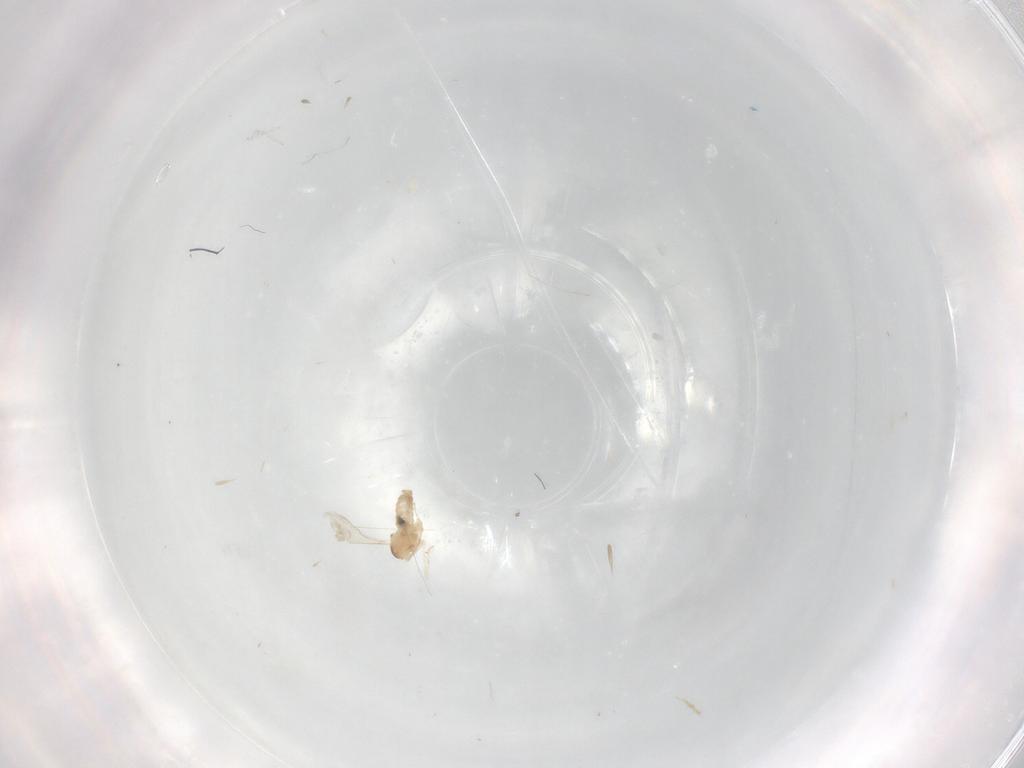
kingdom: Animalia
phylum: Arthropoda
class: Insecta
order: Diptera
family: Cecidomyiidae
